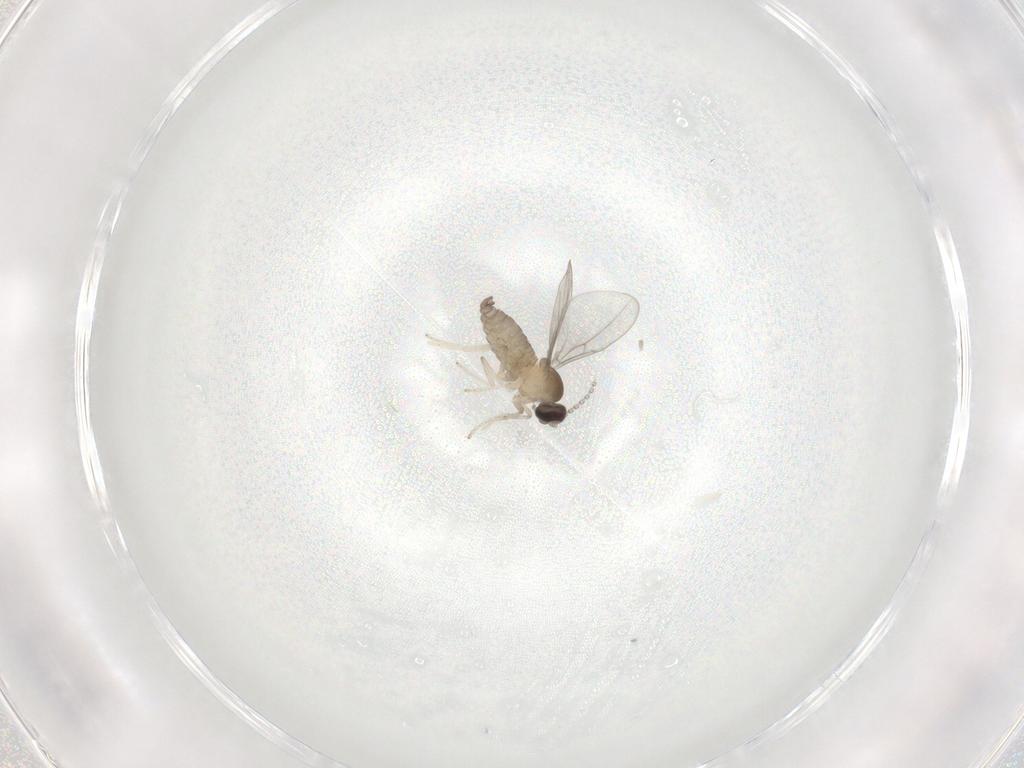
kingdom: Animalia
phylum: Arthropoda
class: Insecta
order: Diptera
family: Cecidomyiidae
